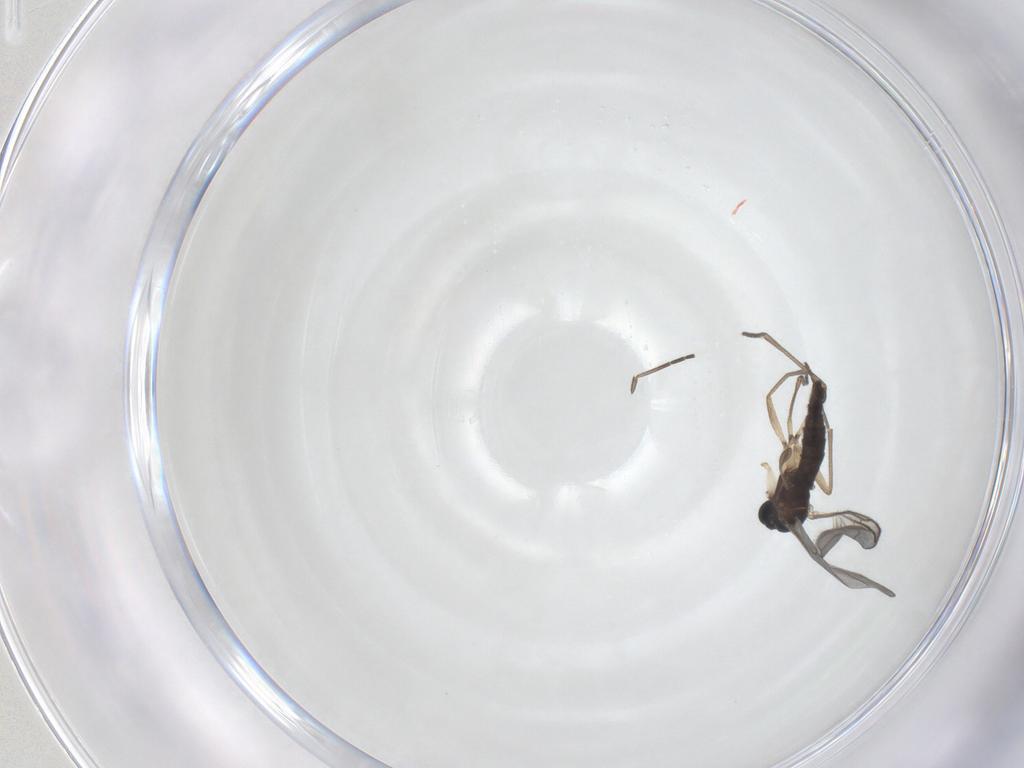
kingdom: Animalia
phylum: Arthropoda
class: Insecta
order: Diptera
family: Sciaridae
